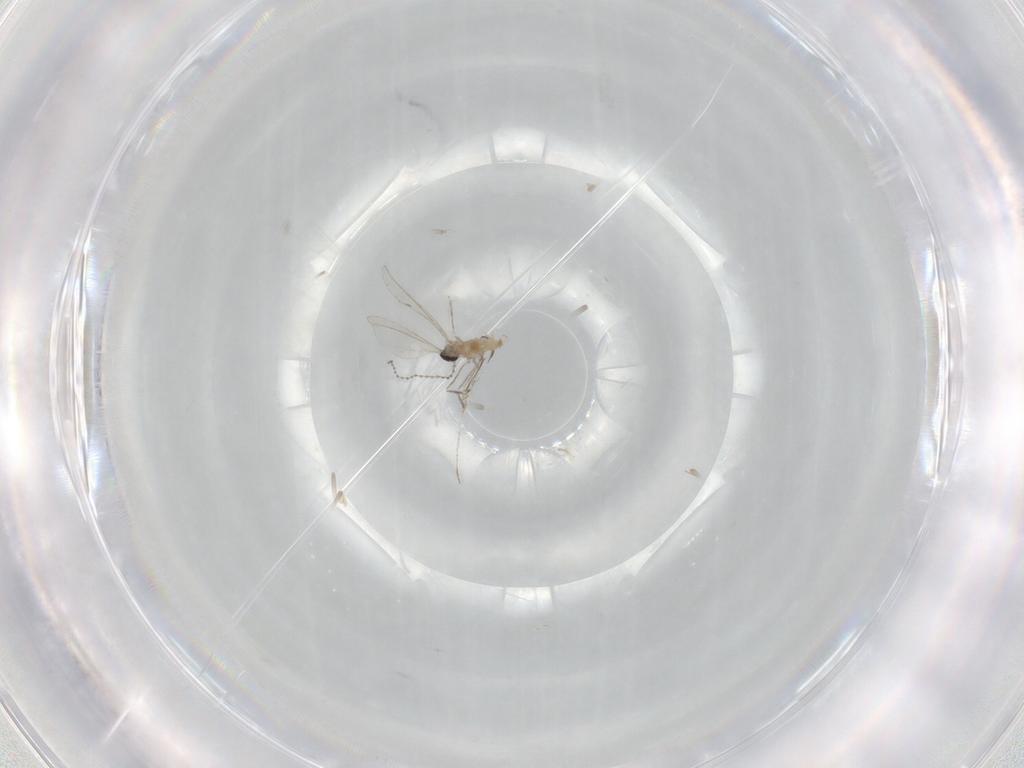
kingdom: Animalia
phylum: Arthropoda
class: Insecta
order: Diptera
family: Cecidomyiidae
